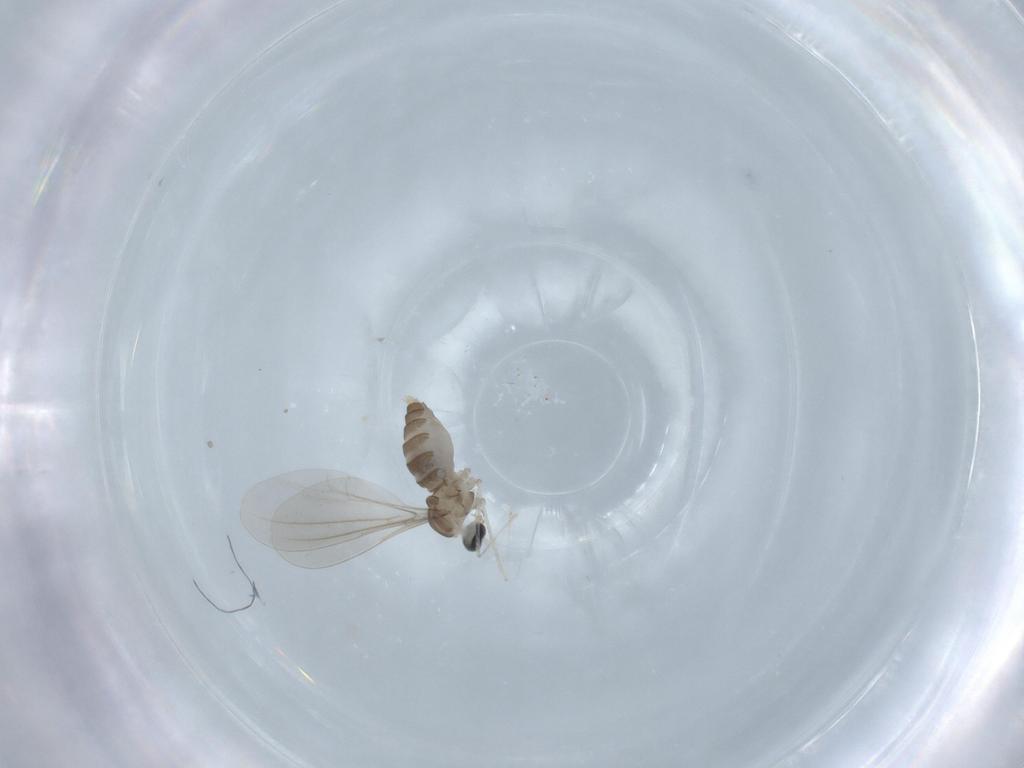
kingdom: Animalia
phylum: Arthropoda
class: Insecta
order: Diptera
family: Cecidomyiidae
